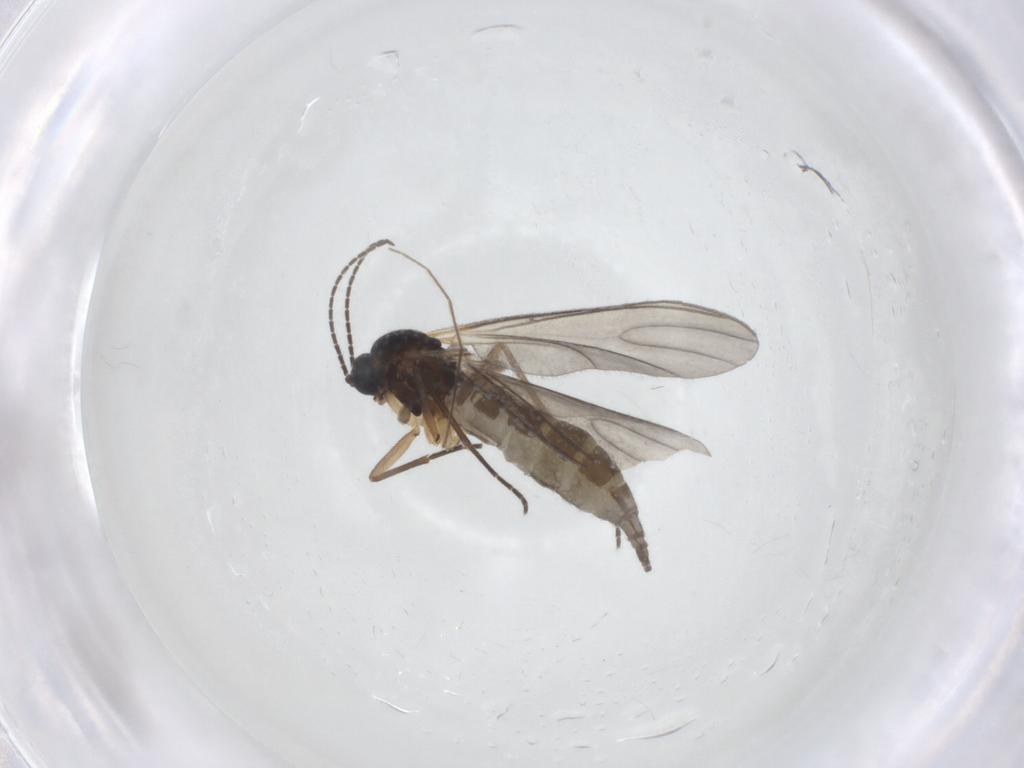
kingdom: Animalia
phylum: Arthropoda
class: Insecta
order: Diptera
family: Sciaridae
